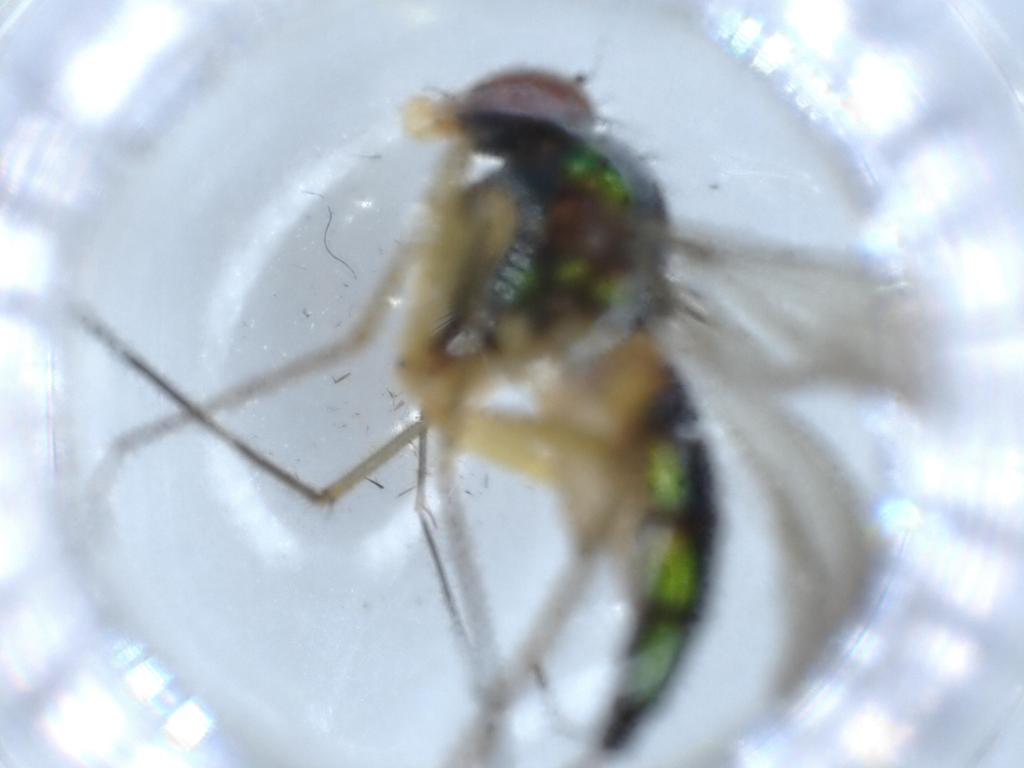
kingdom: Animalia
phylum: Arthropoda
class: Insecta
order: Diptera
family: Dolichopodidae
